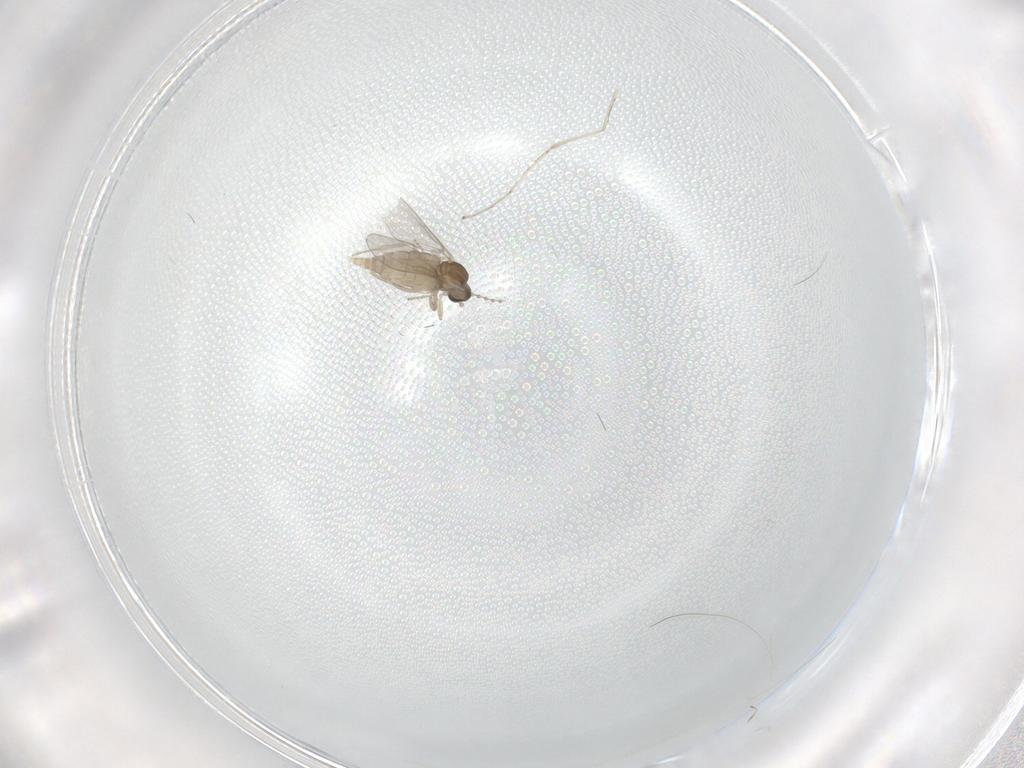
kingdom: Animalia
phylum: Arthropoda
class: Insecta
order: Diptera
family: Cecidomyiidae
